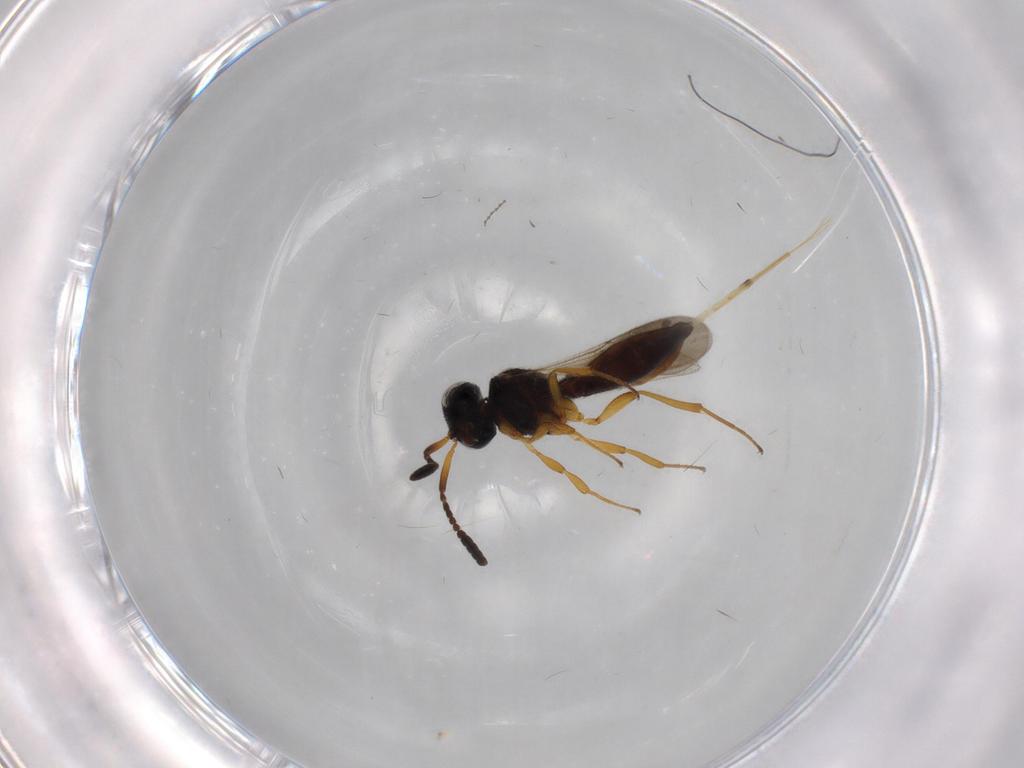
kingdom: Animalia
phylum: Arthropoda
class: Insecta
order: Hymenoptera
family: Scelionidae
